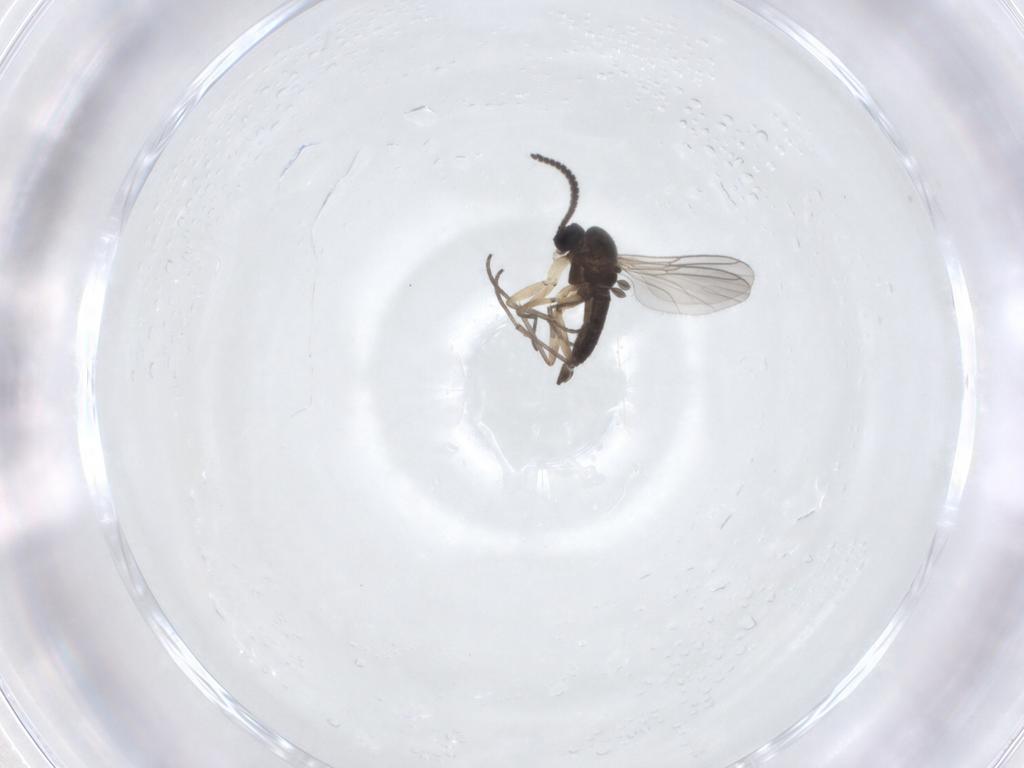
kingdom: Animalia
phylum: Arthropoda
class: Insecta
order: Diptera
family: Sciaridae
